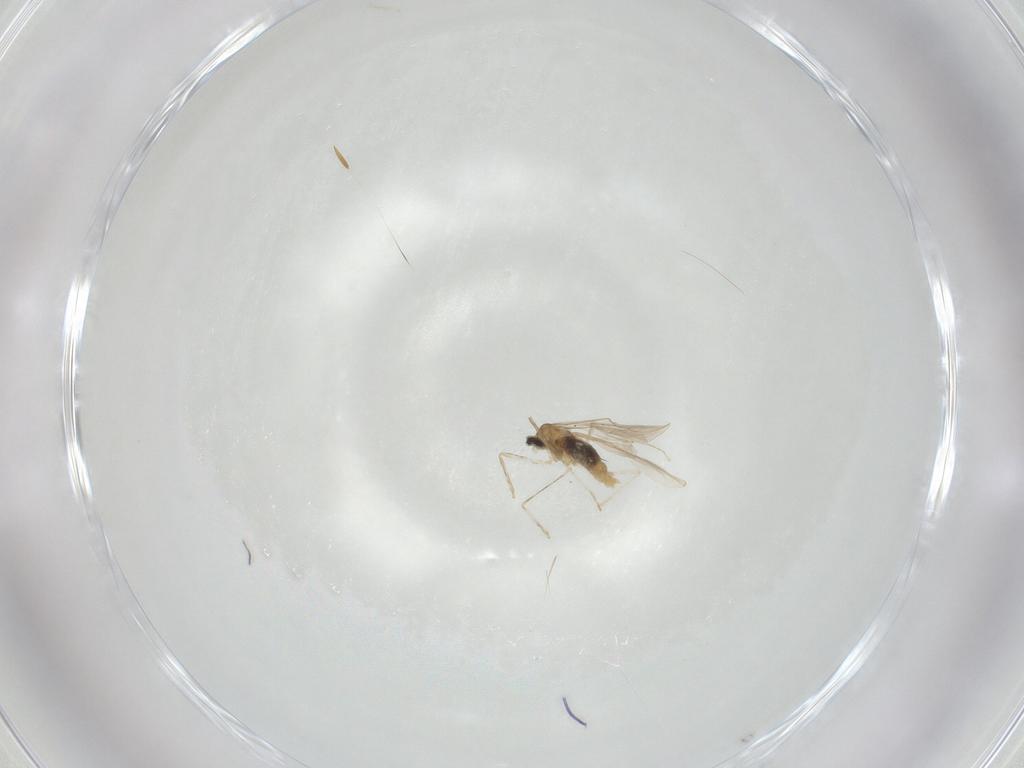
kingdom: Animalia
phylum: Arthropoda
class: Insecta
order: Diptera
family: Cecidomyiidae
